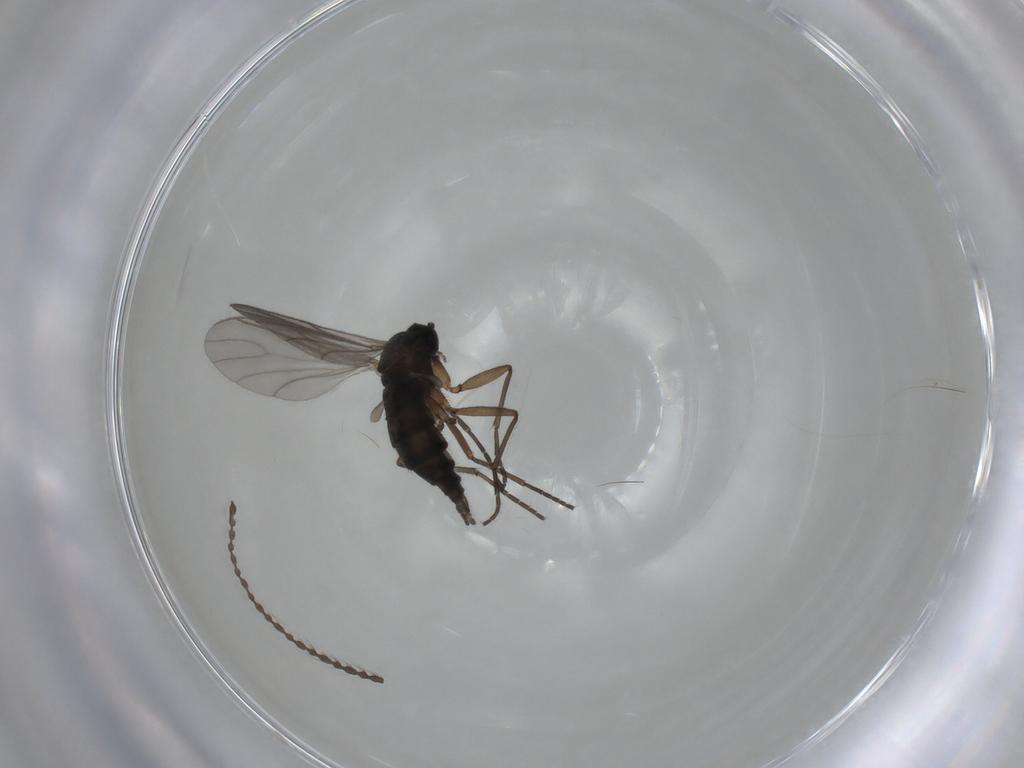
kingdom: Animalia
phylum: Arthropoda
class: Insecta
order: Diptera
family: Cecidomyiidae
